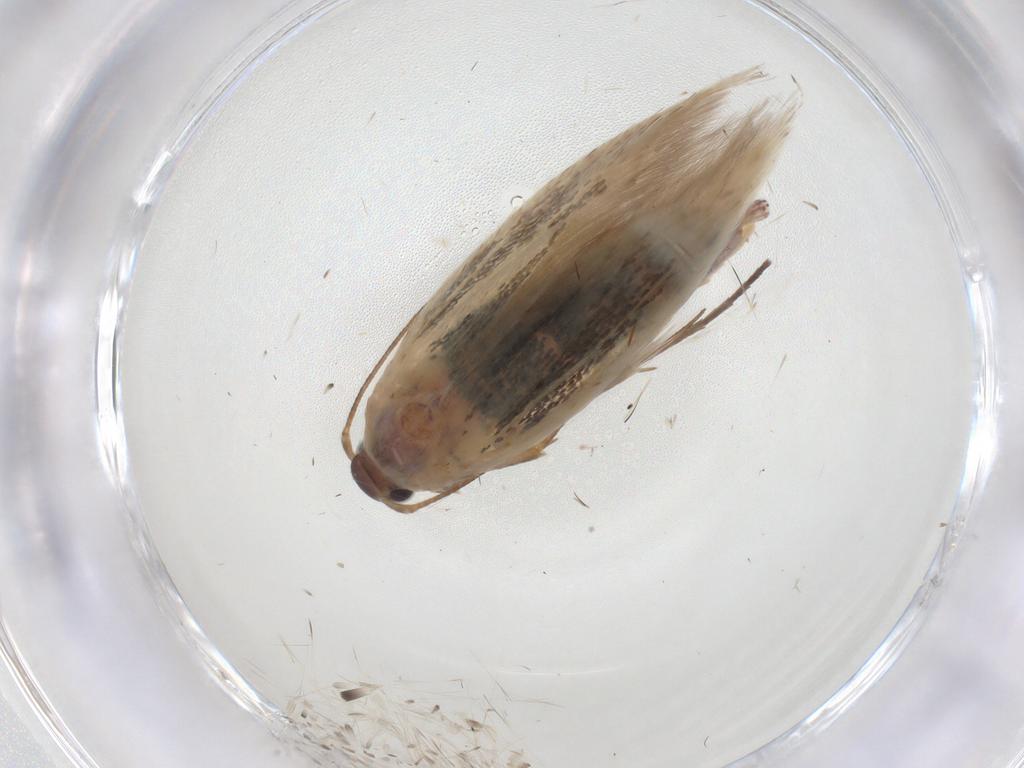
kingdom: Animalia
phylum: Arthropoda
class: Insecta
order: Lepidoptera
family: Scythrididae
